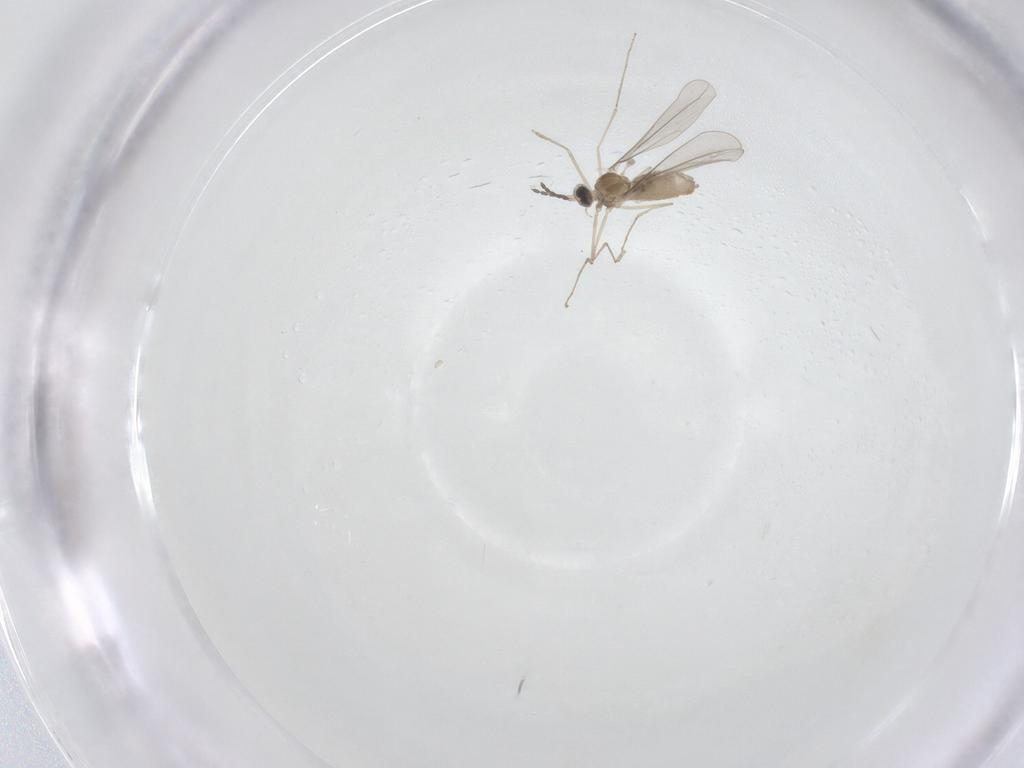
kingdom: Animalia
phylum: Arthropoda
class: Insecta
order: Diptera
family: Cecidomyiidae
